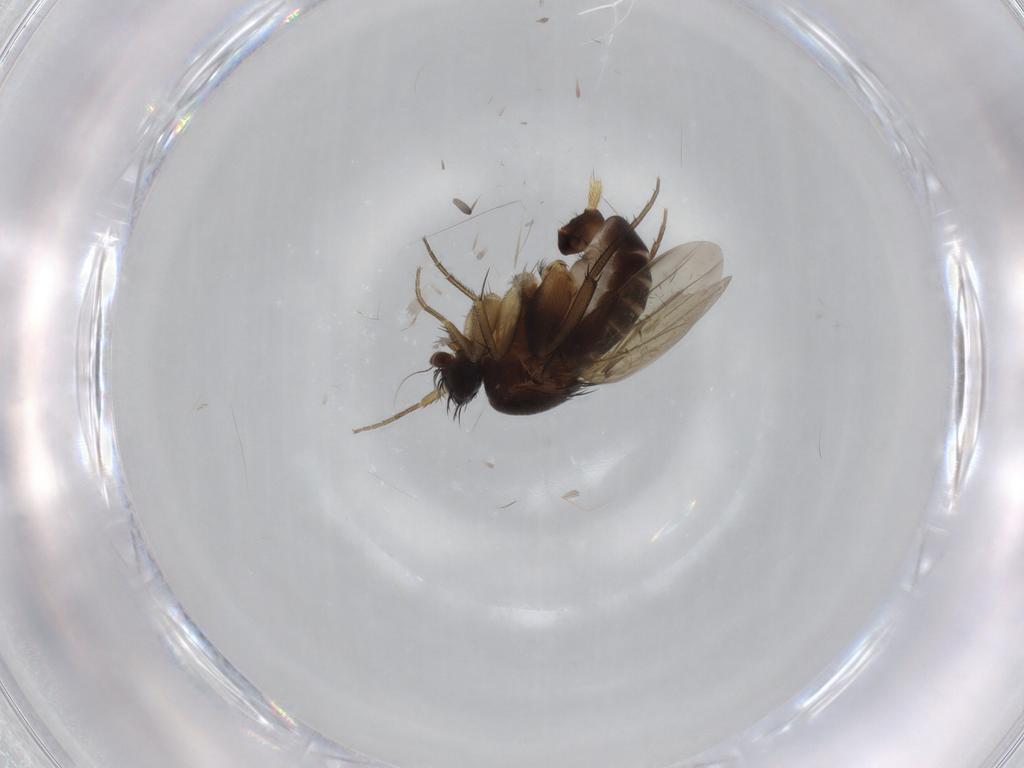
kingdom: Animalia
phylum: Arthropoda
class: Insecta
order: Diptera
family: Phoridae
